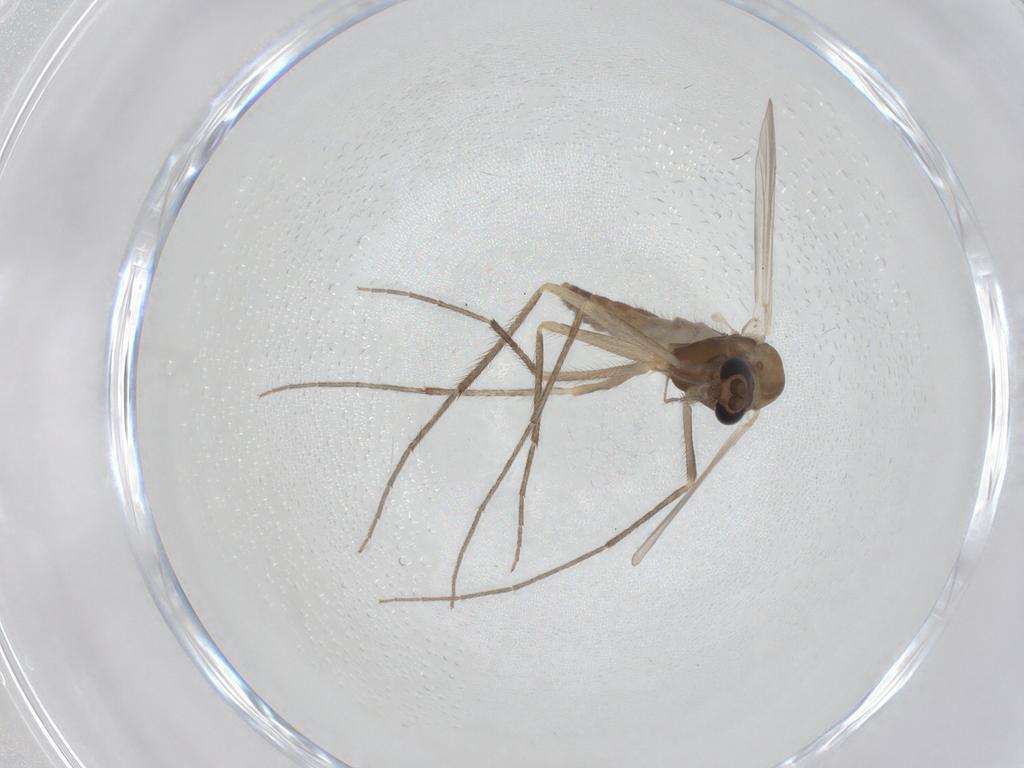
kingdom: Animalia
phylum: Arthropoda
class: Insecta
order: Diptera
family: Chironomidae
